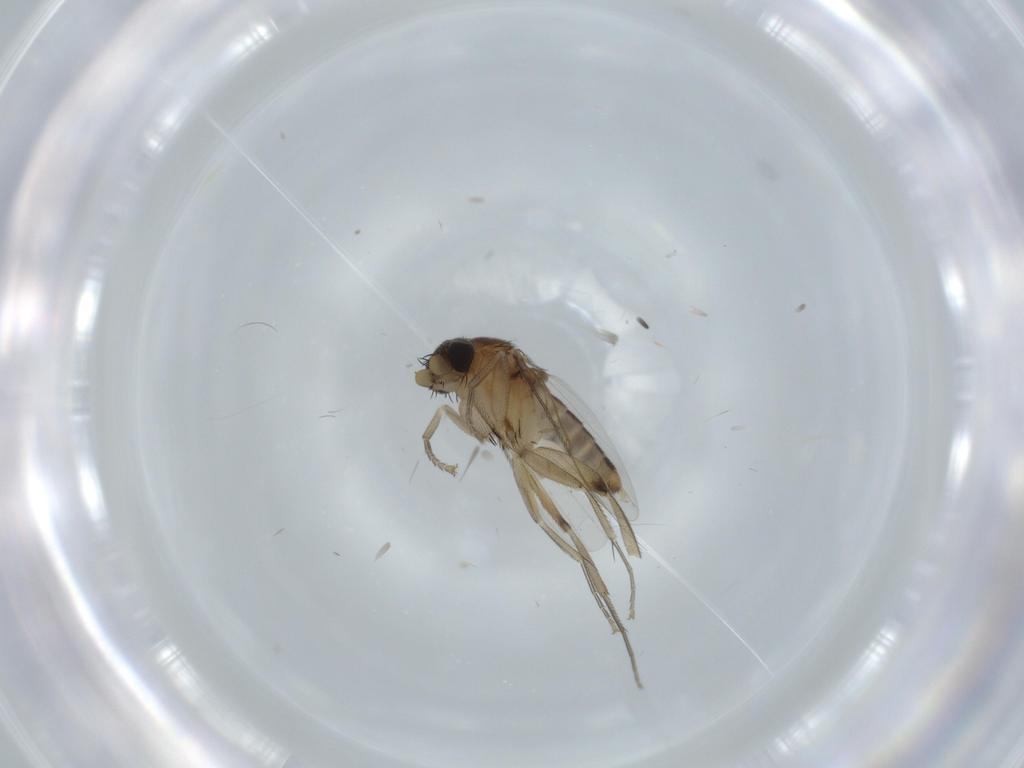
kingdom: Animalia
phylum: Arthropoda
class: Insecta
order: Diptera
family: Phoridae
